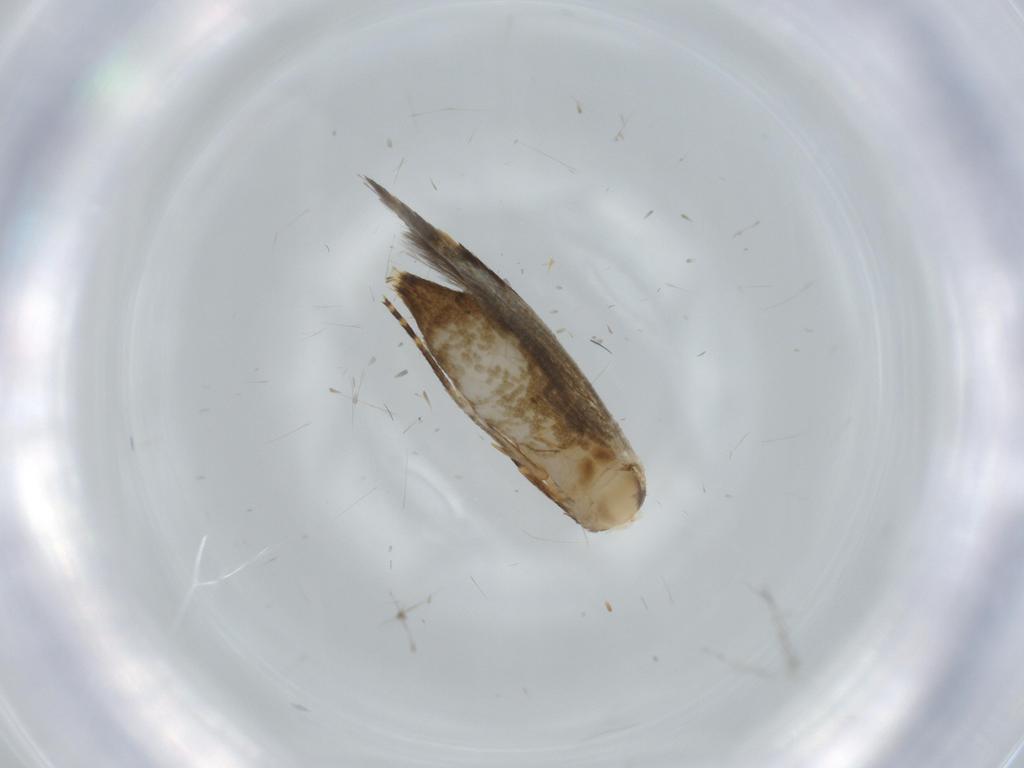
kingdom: Animalia
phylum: Arthropoda
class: Insecta
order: Lepidoptera
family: Tineidae
